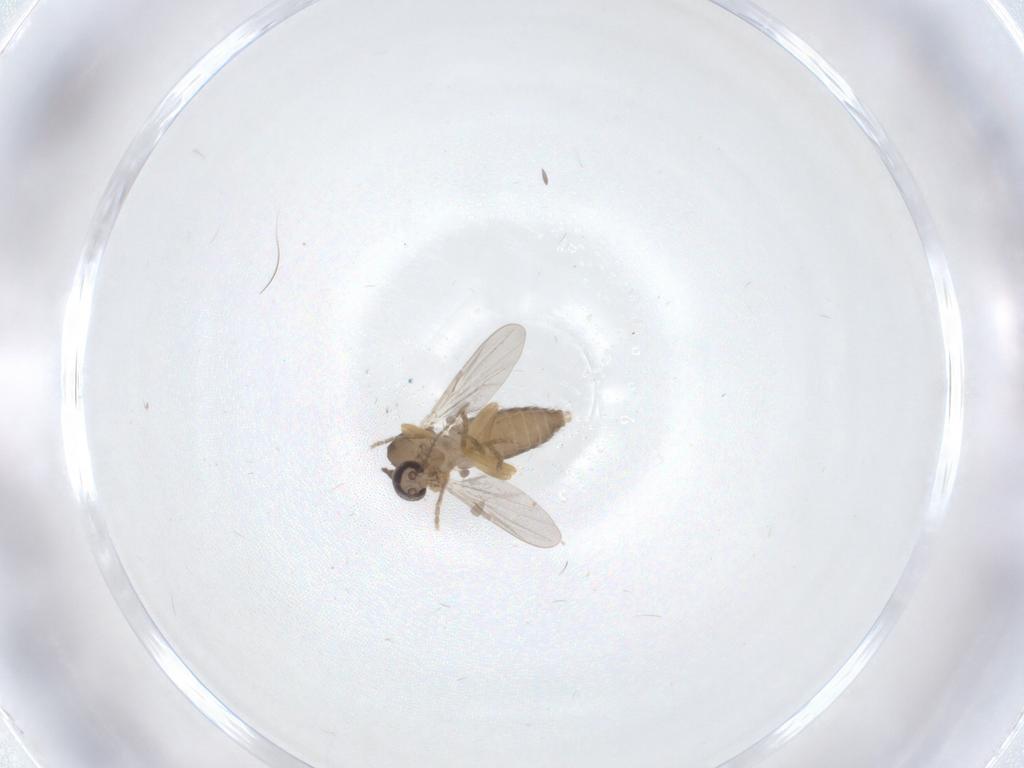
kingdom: Animalia
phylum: Arthropoda
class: Insecta
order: Diptera
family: Ceratopogonidae
